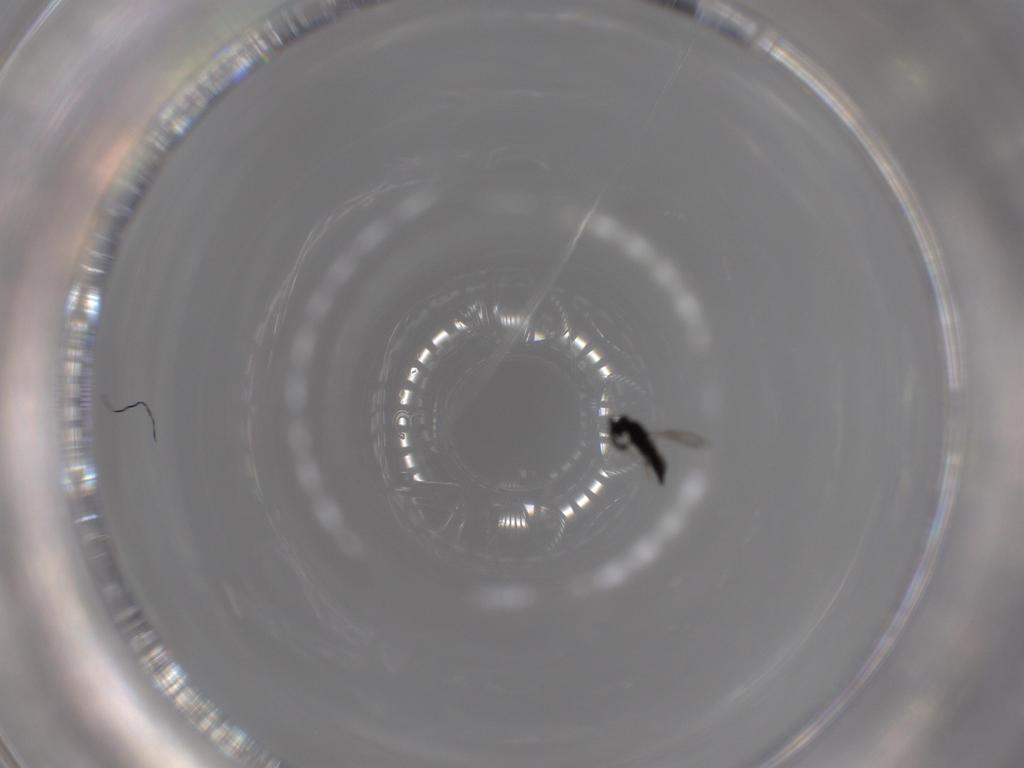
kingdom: Animalia
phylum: Arthropoda
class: Insecta
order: Hymenoptera
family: Scelionidae
